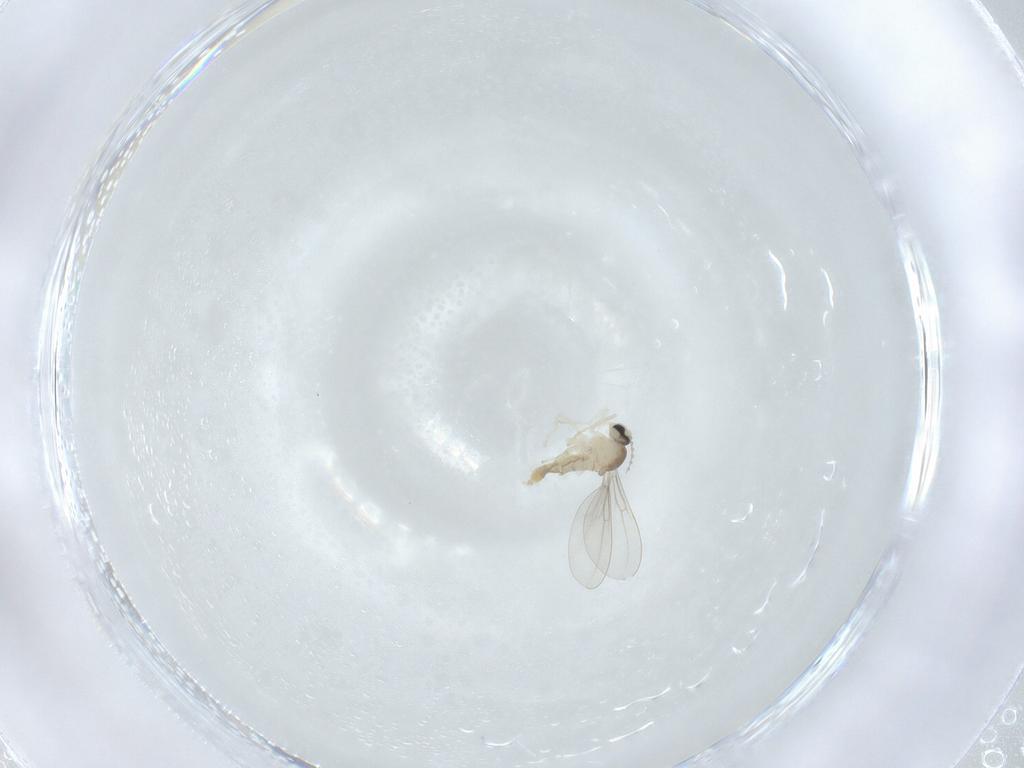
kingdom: Animalia
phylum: Arthropoda
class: Insecta
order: Diptera
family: Cecidomyiidae
